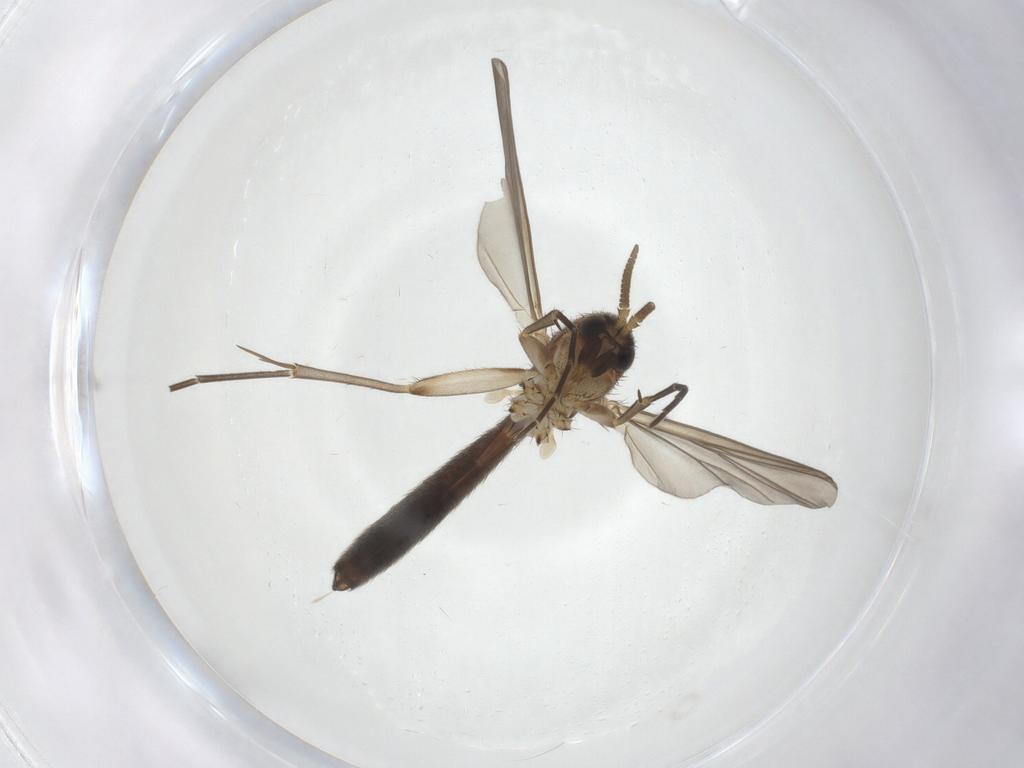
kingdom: Animalia
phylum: Arthropoda
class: Insecta
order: Diptera
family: Mycetophilidae
